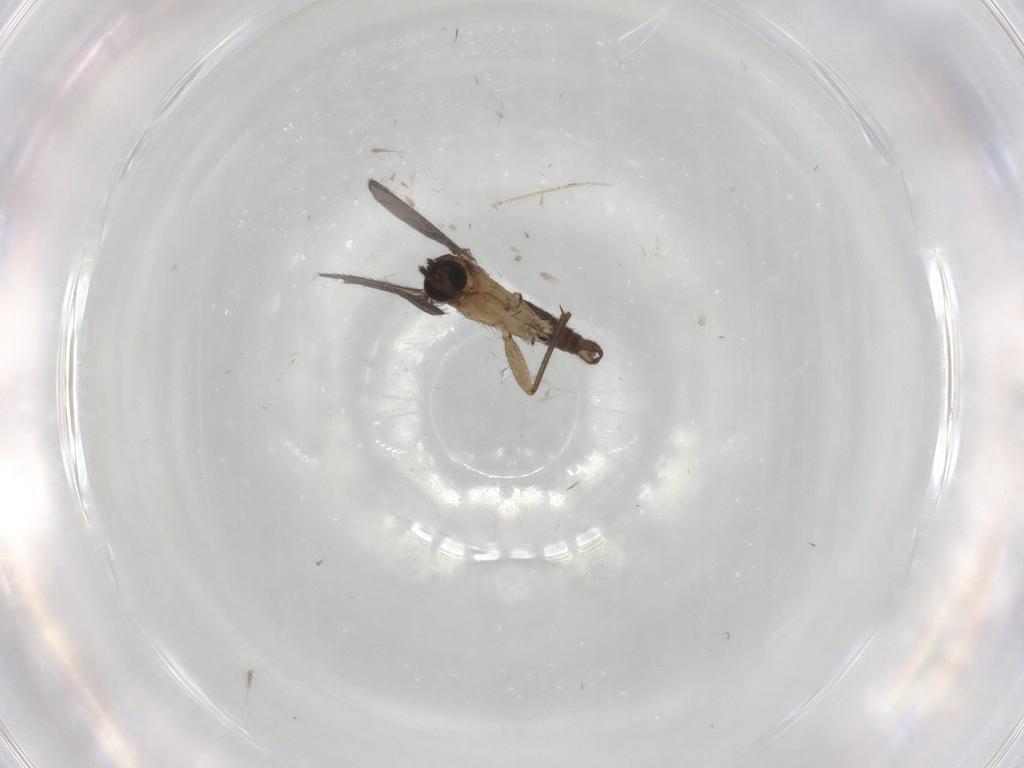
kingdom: Animalia
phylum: Arthropoda
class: Insecta
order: Diptera
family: Sciaridae
